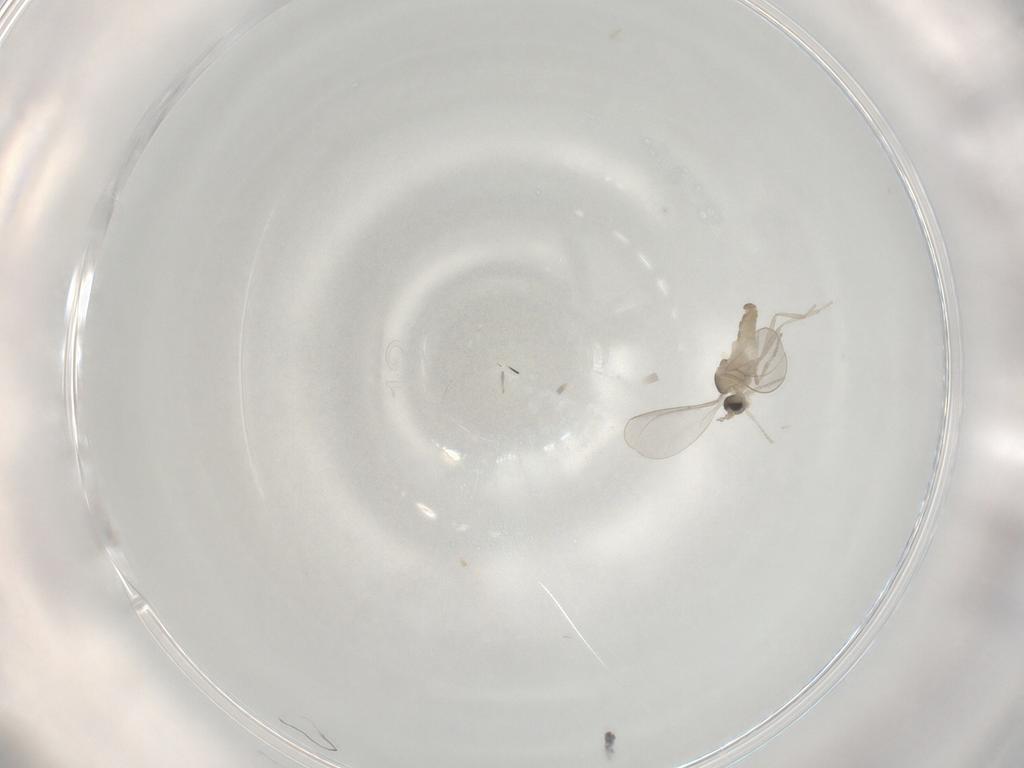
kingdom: Animalia
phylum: Arthropoda
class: Insecta
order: Diptera
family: Cecidomyiidae
